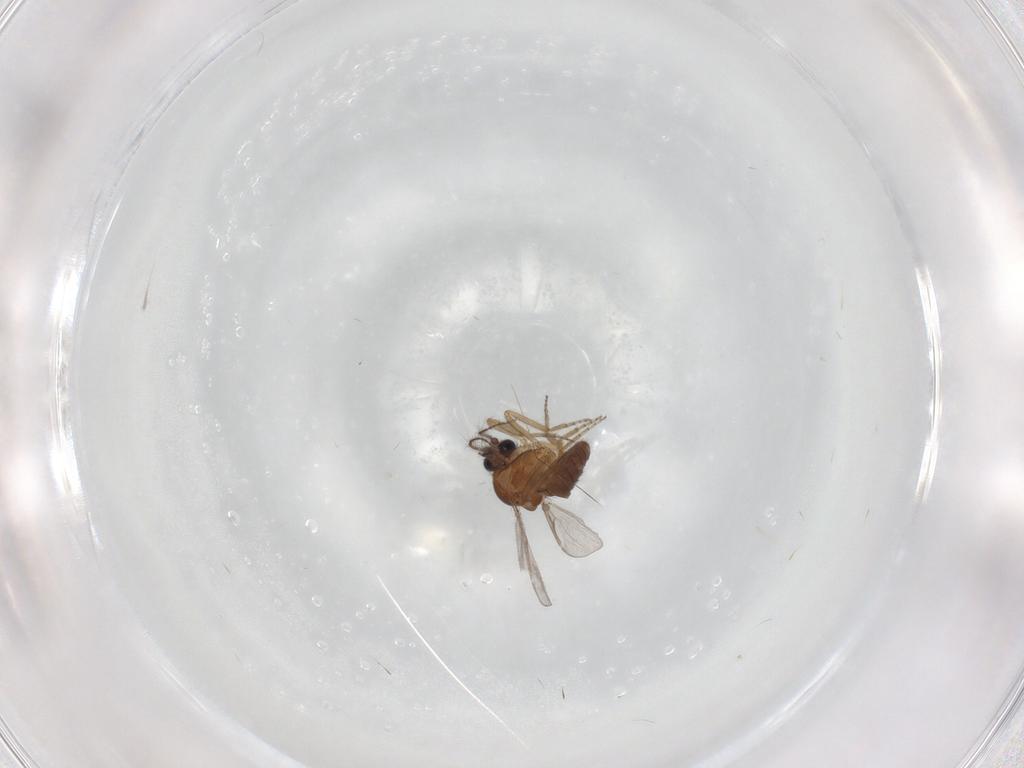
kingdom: Animalia
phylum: Arthropoda
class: Insecta
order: Diptera
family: Phoridae
